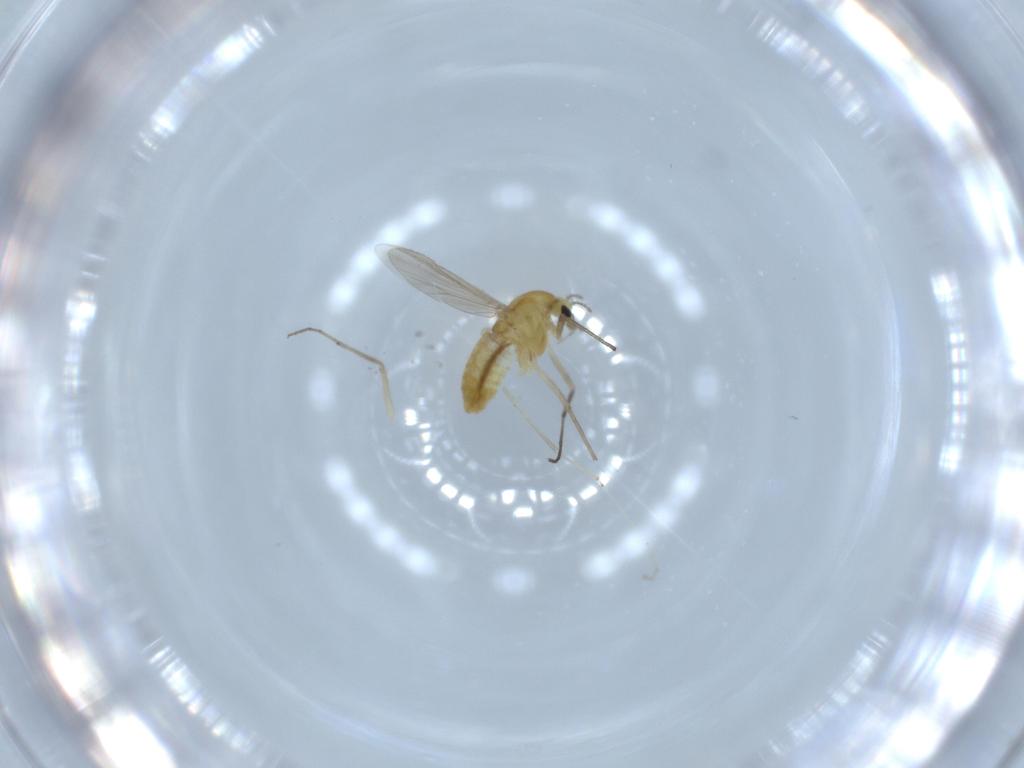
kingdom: Animalia
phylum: Arthropoda
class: Insecta
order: Diptera
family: Chironomidae
